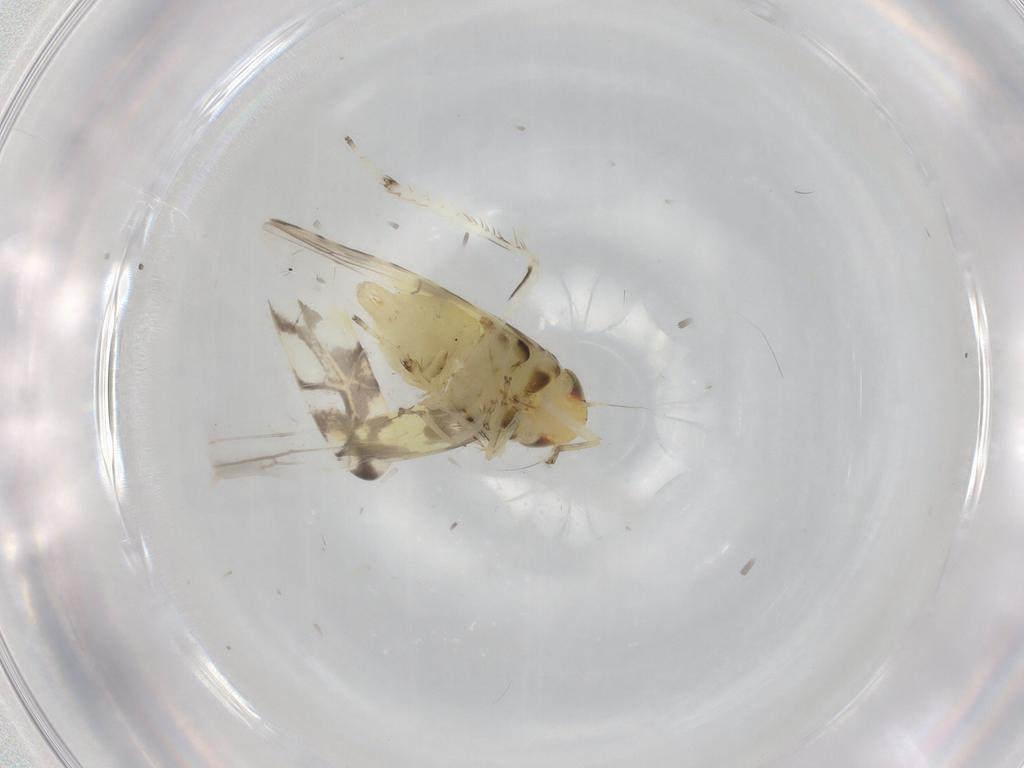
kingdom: Animalia
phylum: Arthropoda
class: Insecta
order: Hemiptera
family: Cicadellidae
